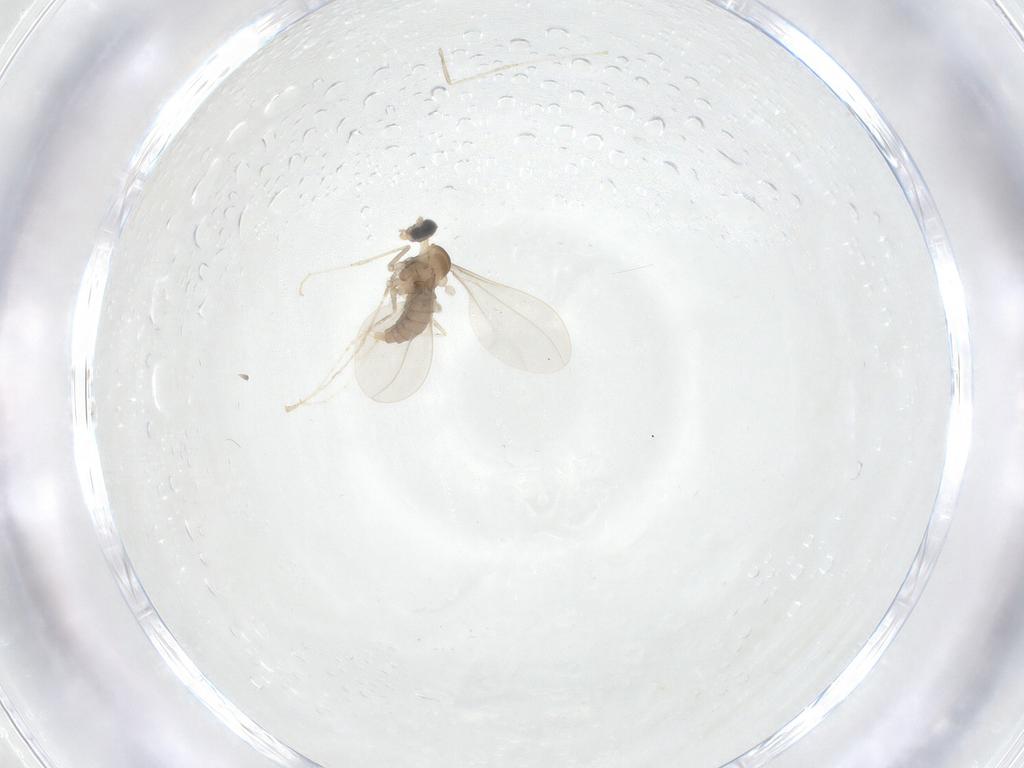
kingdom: Animalia
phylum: Arthropoda
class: Insecta
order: Diptera
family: Cecidomyiidae
